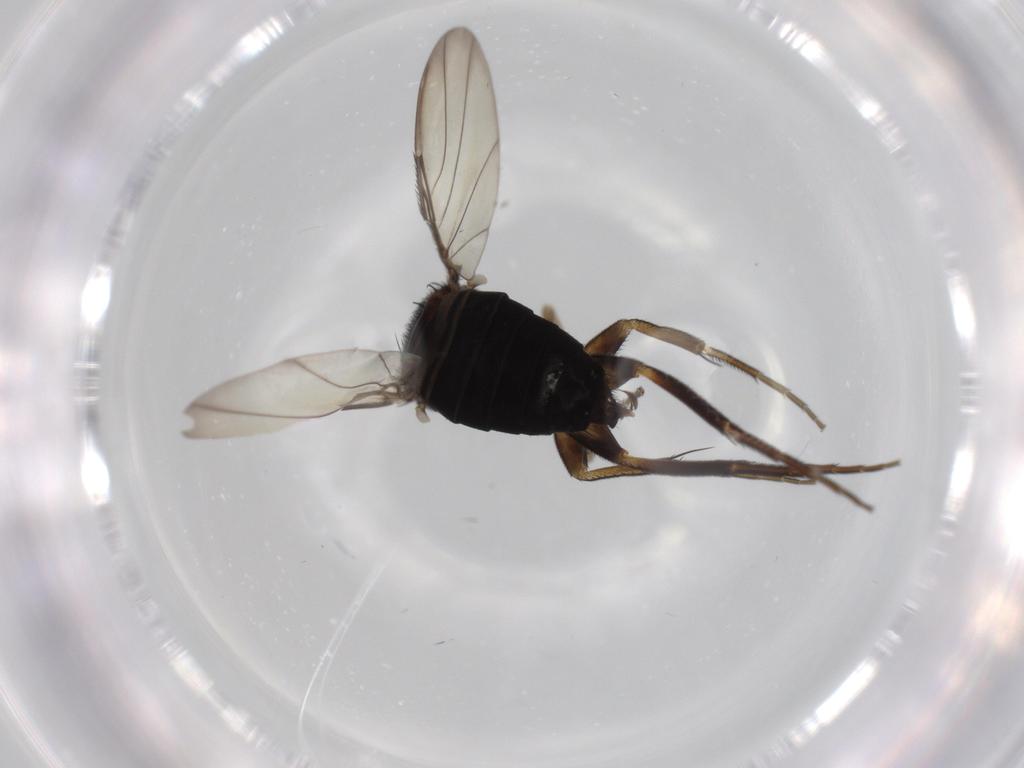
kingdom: Animalia
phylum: Arthropoda
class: Insecta
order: Diptera
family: Phoridae
